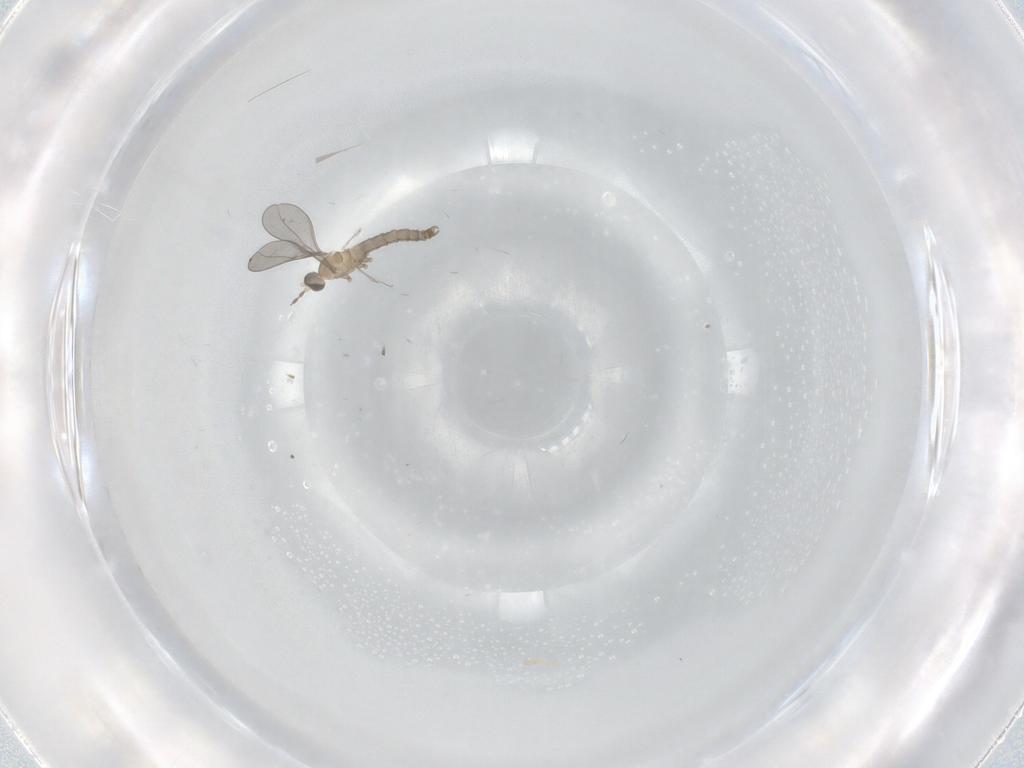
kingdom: Animalia
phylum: Arthropoda
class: Insecta
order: Diptera
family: Cecidomyiidae
